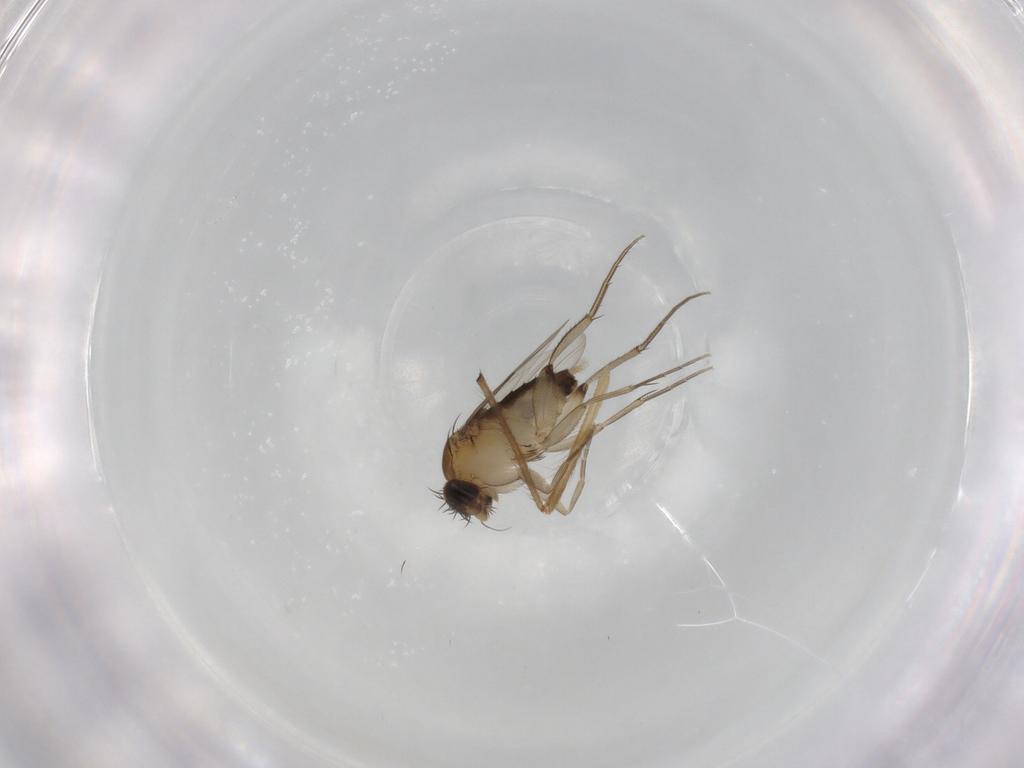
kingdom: Animalia
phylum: Arthropoda
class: Insecta
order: Diptera
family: Phoridae
